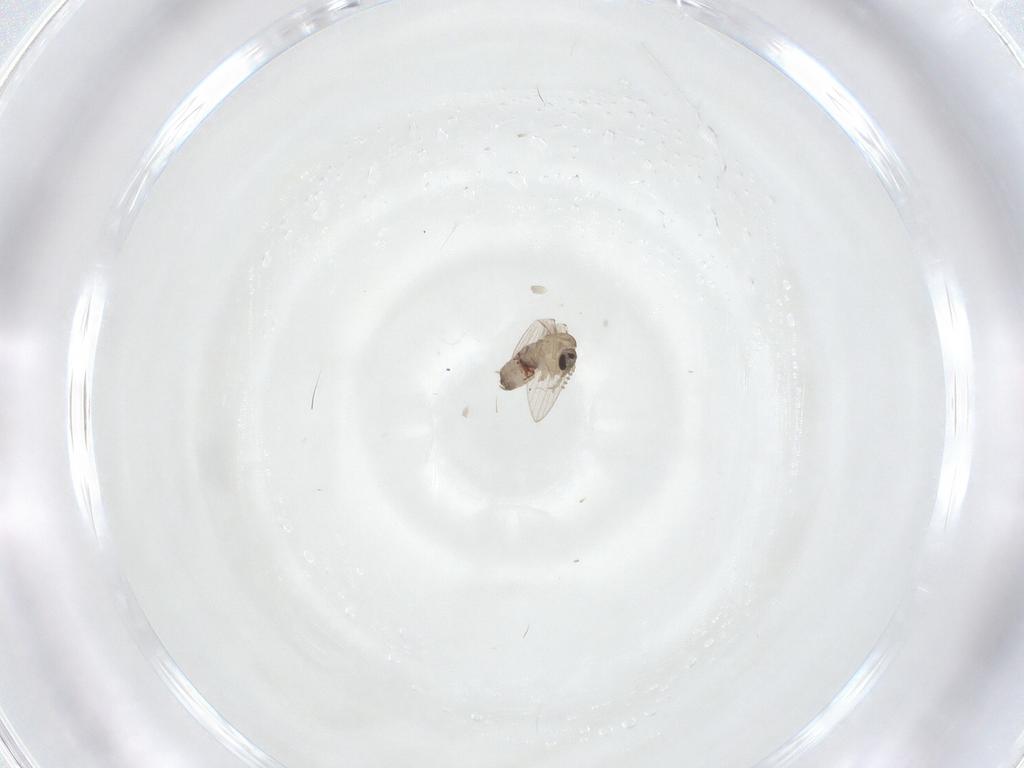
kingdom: Animalia
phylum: Arthropoda
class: Insecta
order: Diptera
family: Psychodidae
